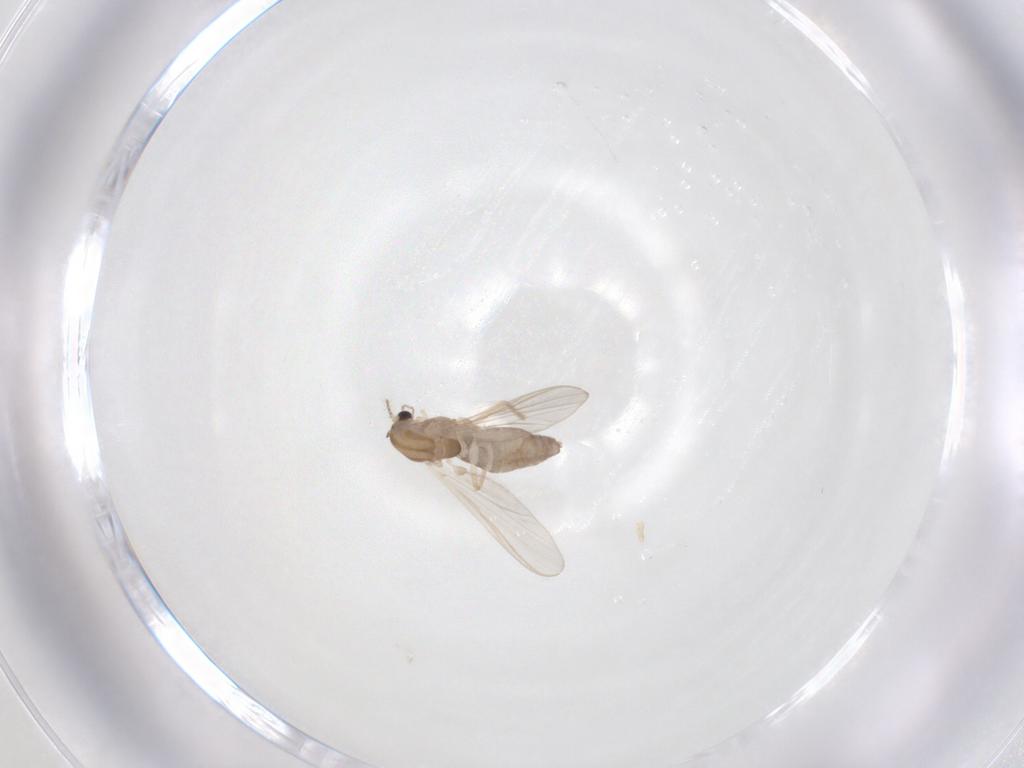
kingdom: Animalia
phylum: Arthropoda
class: Insecta
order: Diptera
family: Chironomidae
